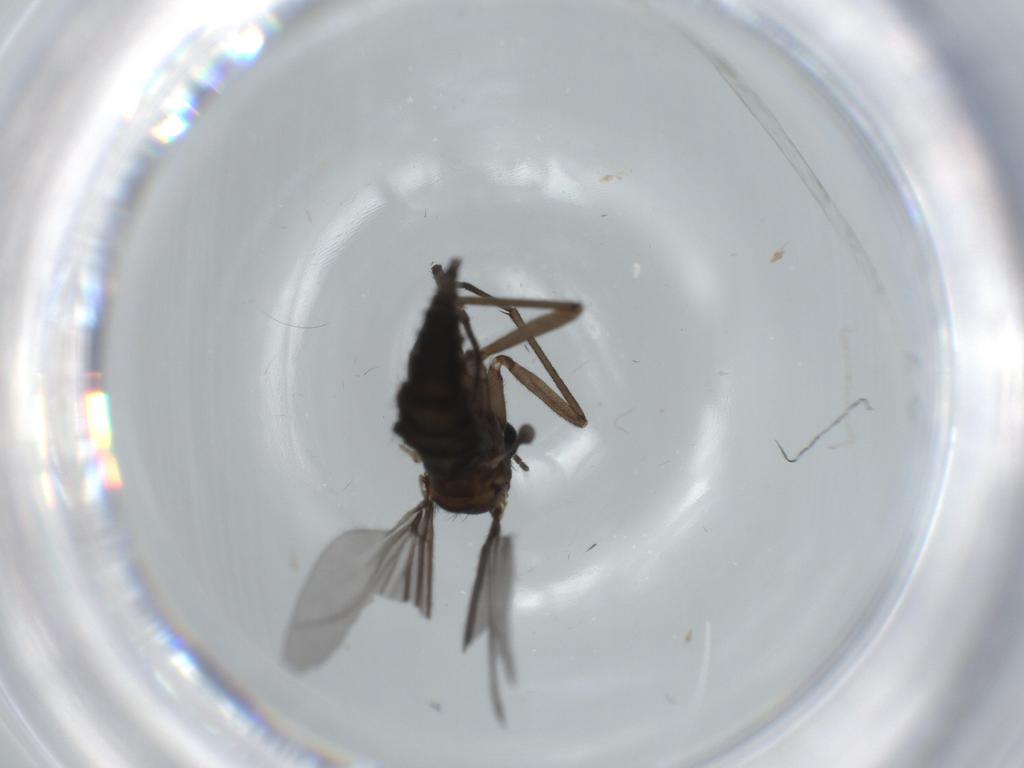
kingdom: Animalia
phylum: Arthropoda
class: Insecta
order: Diptera
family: Sciaridae
